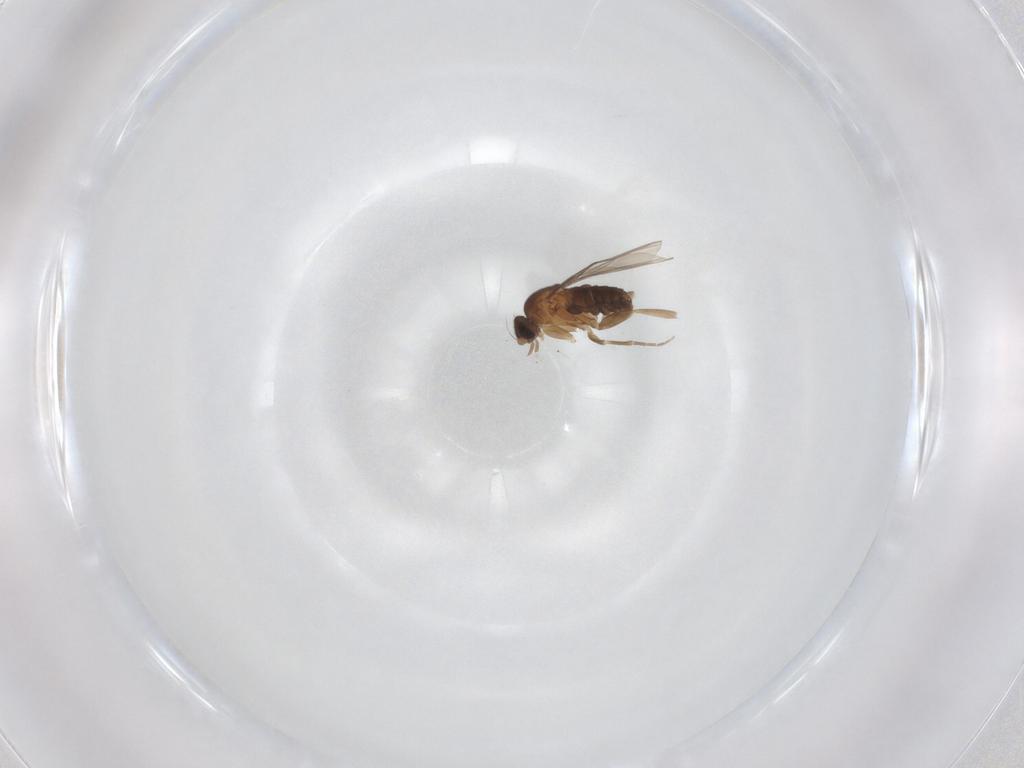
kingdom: Animalia
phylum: Arthropoda
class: Insecta
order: Diptera
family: Phoridae
